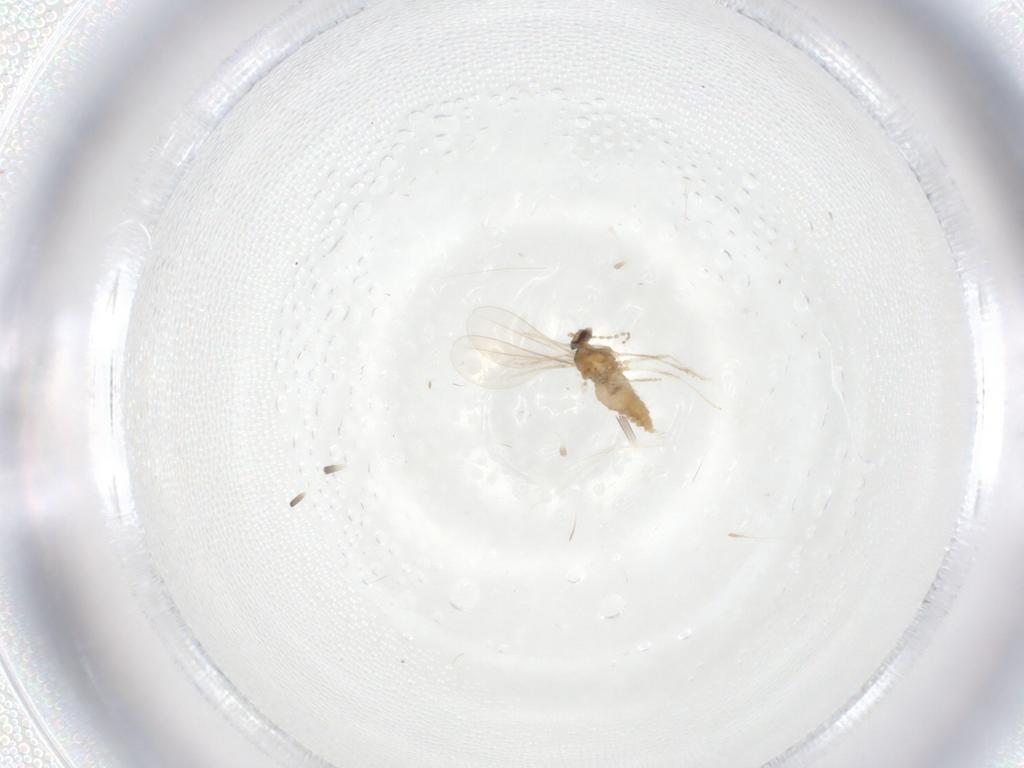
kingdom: Animalia
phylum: Arthropoda
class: Insecta
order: Diptera
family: Cecidomyiidae
